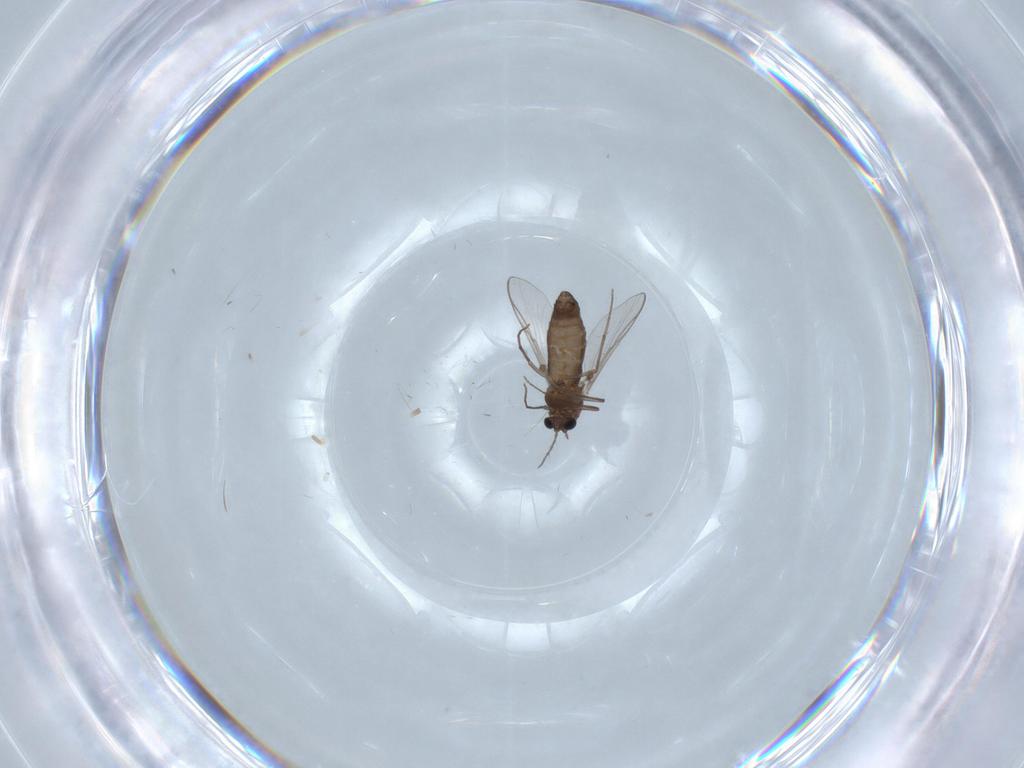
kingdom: Animalia
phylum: Arthropoda
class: Insecta
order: Diptera
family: Chironomidae
